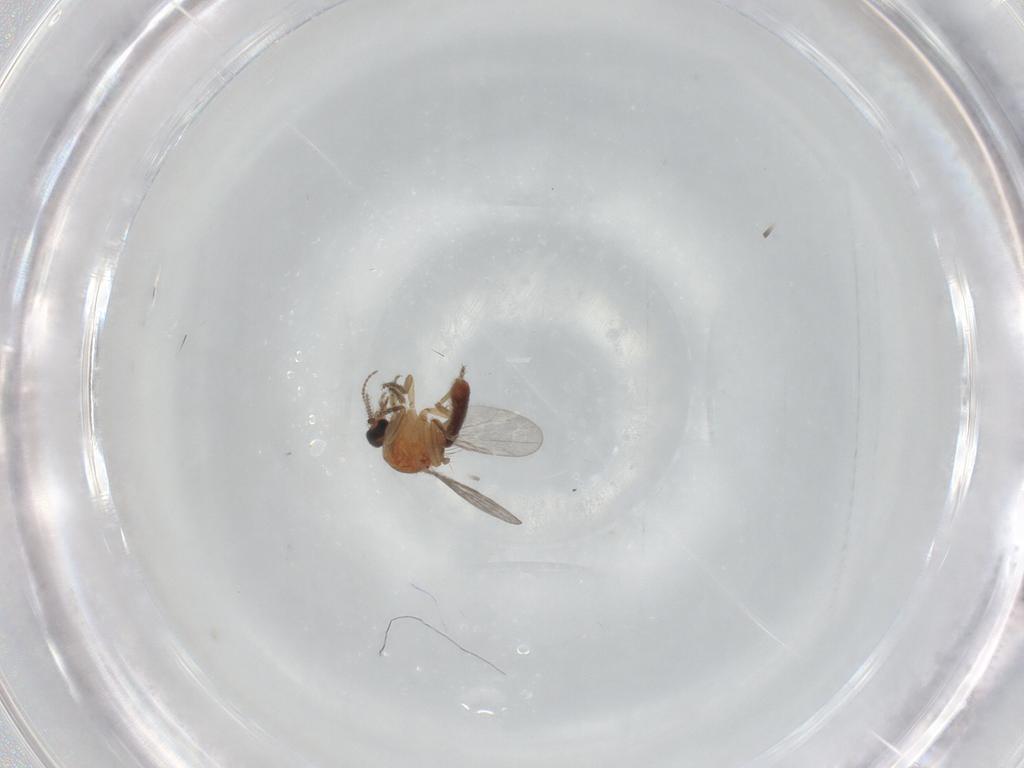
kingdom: Animalia
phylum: Arthropoda
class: Insecta
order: Diptera
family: Ceratopogonidae
